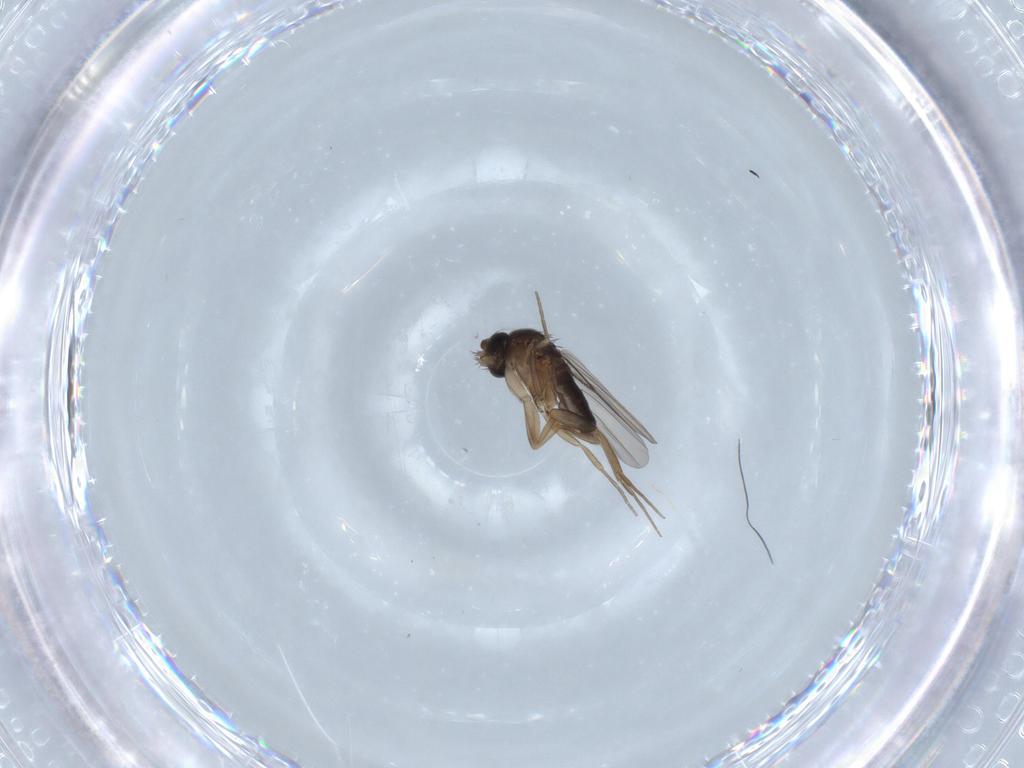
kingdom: Animalia
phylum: Arthropoda
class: Insecta
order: Diptera
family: Phoridae
